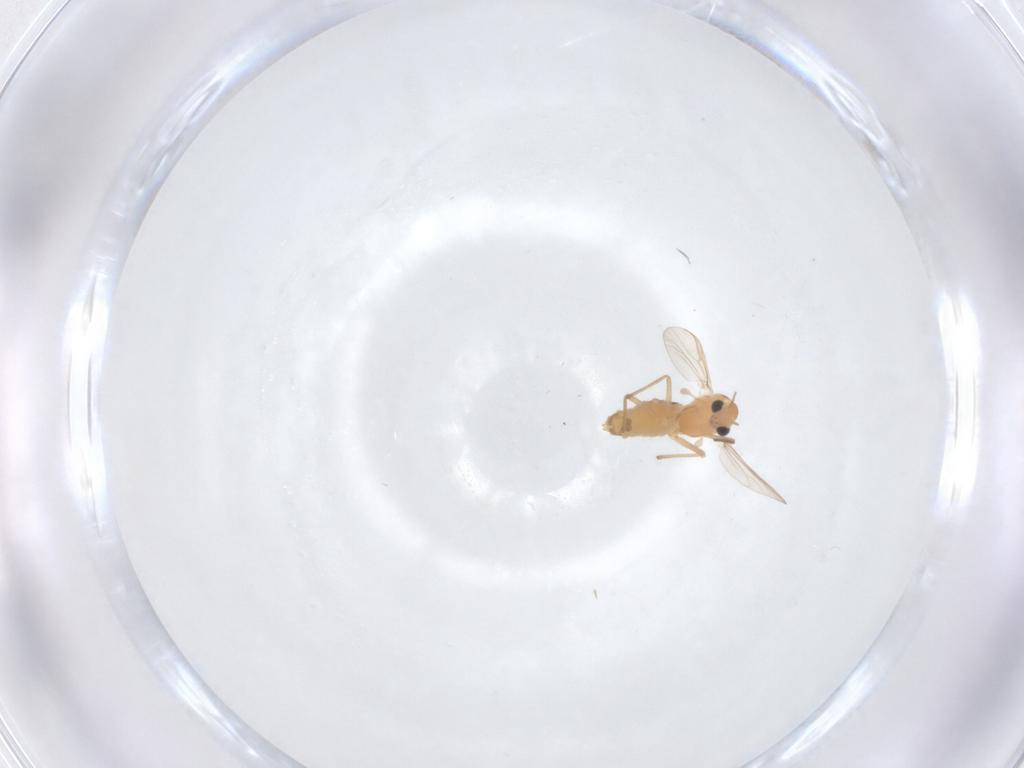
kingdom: Animalia
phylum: Arthropoda
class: Insecta
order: Diptera
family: Chironomidae
